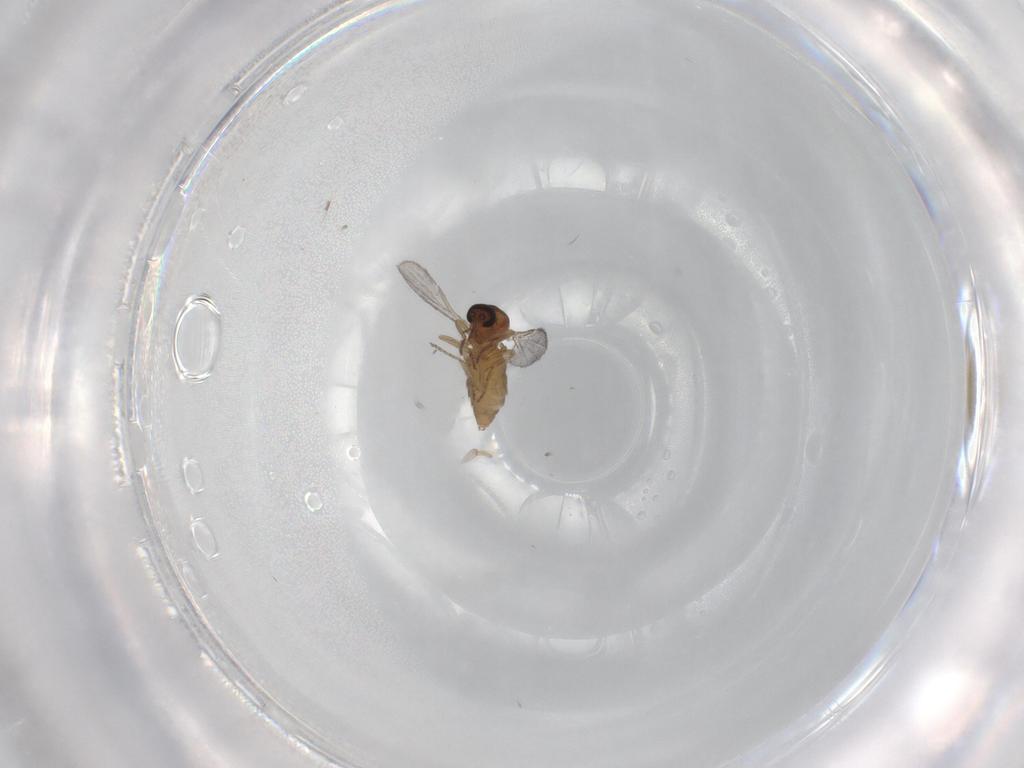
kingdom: Animalia
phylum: Arthropoda
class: Insecta
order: Diptera
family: Ceratopogonidae
